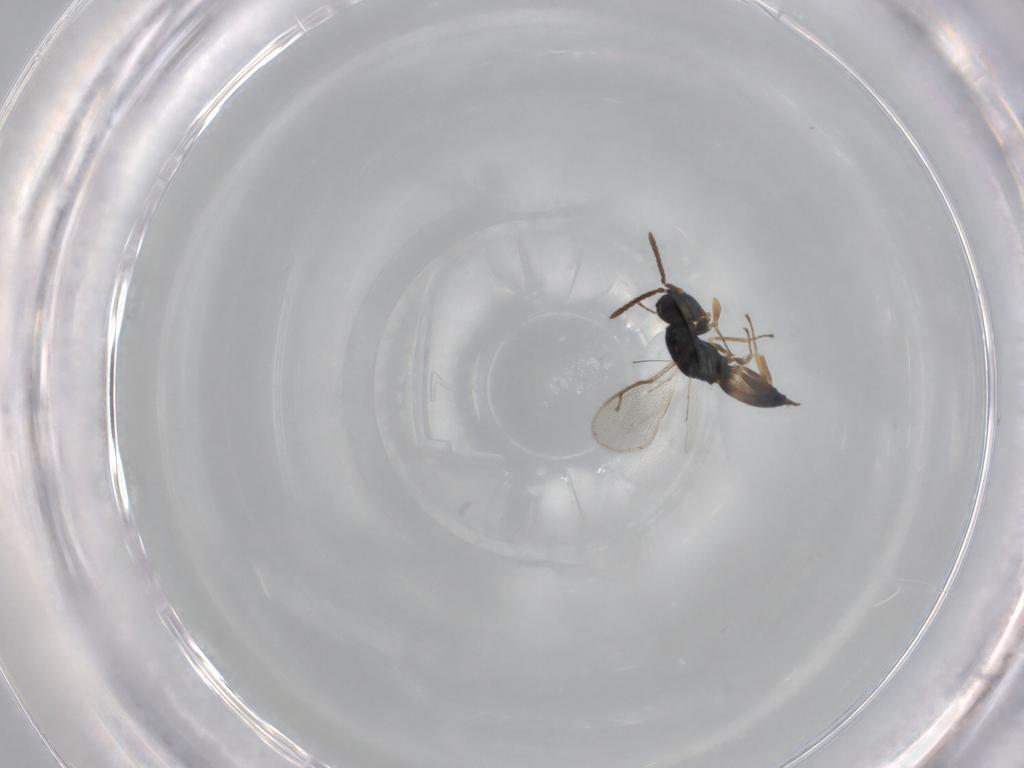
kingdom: Animalia
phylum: Arthropoda
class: Insecta
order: Hymenoptera
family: Pteromalidae
